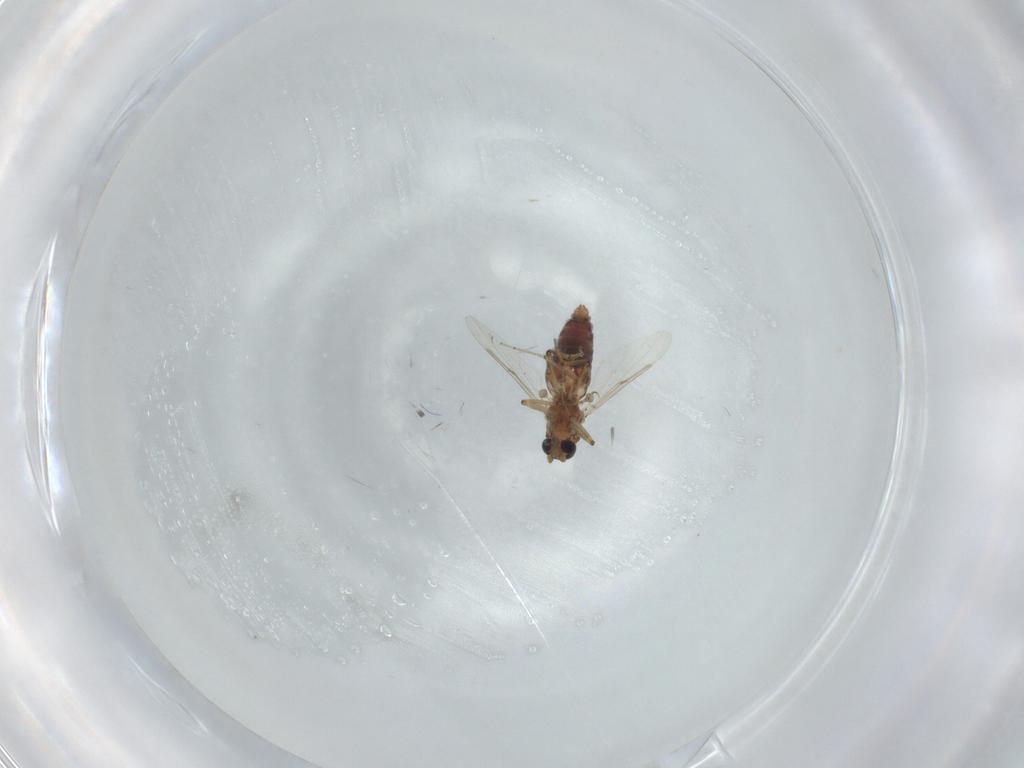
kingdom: Animalia
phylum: Arthropoda
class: Insecta
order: Diptera
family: Ceratopogonidae
